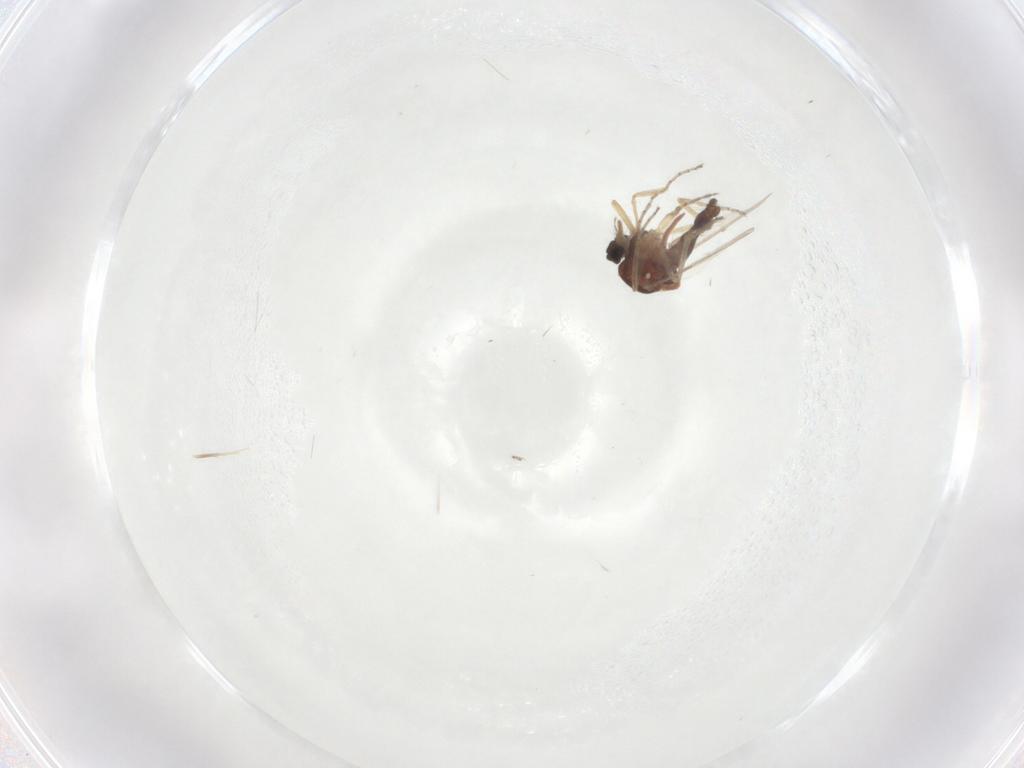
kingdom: Animalia
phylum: Arthropoda
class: Insecta
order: Diptera
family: Ceratopogonidae
